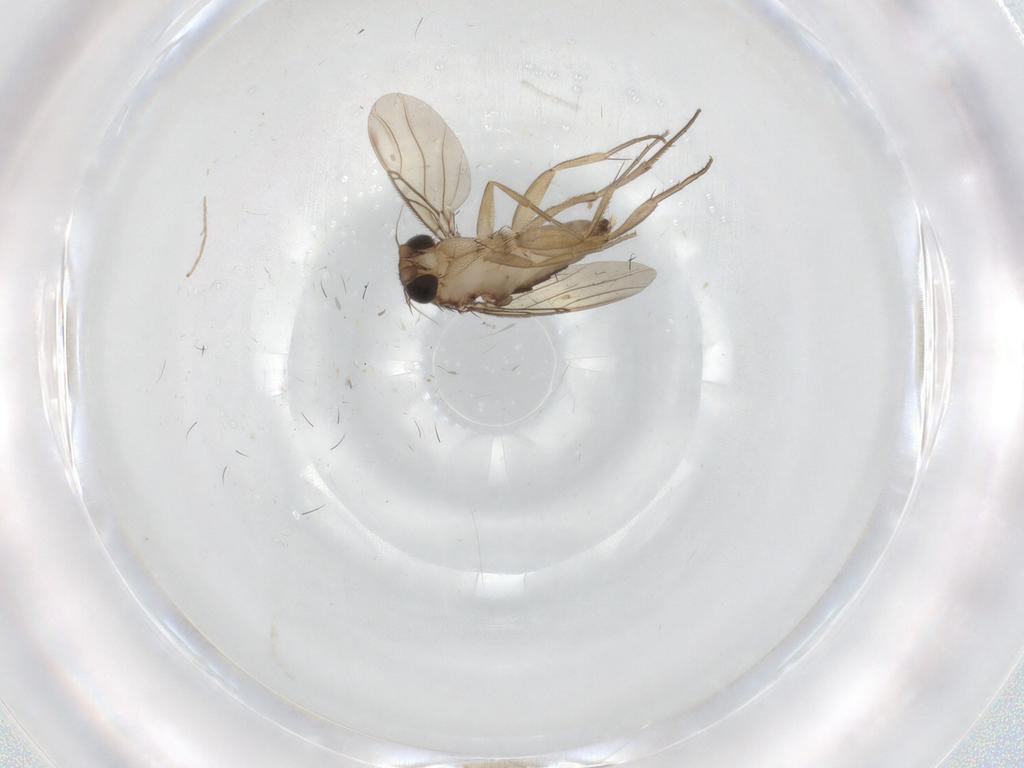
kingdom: Animalia
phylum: Arthropoda
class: Insecta
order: Diptera
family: Phoridae
